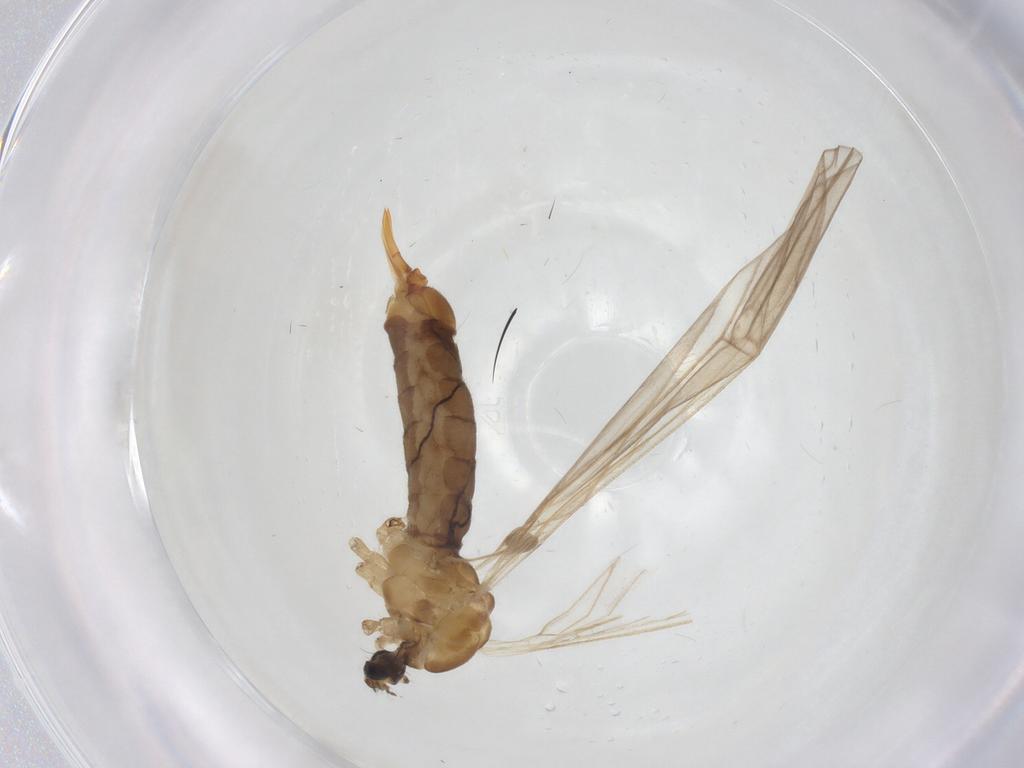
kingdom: Animalia
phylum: Arthropoda
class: Insecta
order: Diptera
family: Limoniidae
